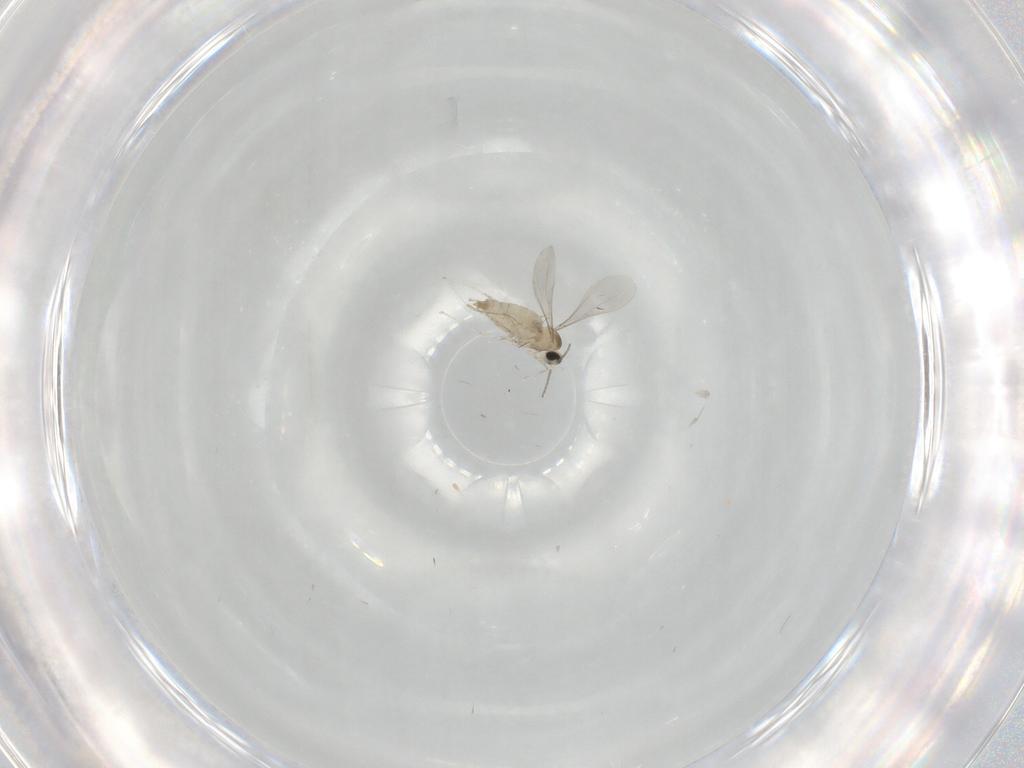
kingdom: Animalia
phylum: Arthropoda
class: Insecta
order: Diptera
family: Cecidomyiidae
